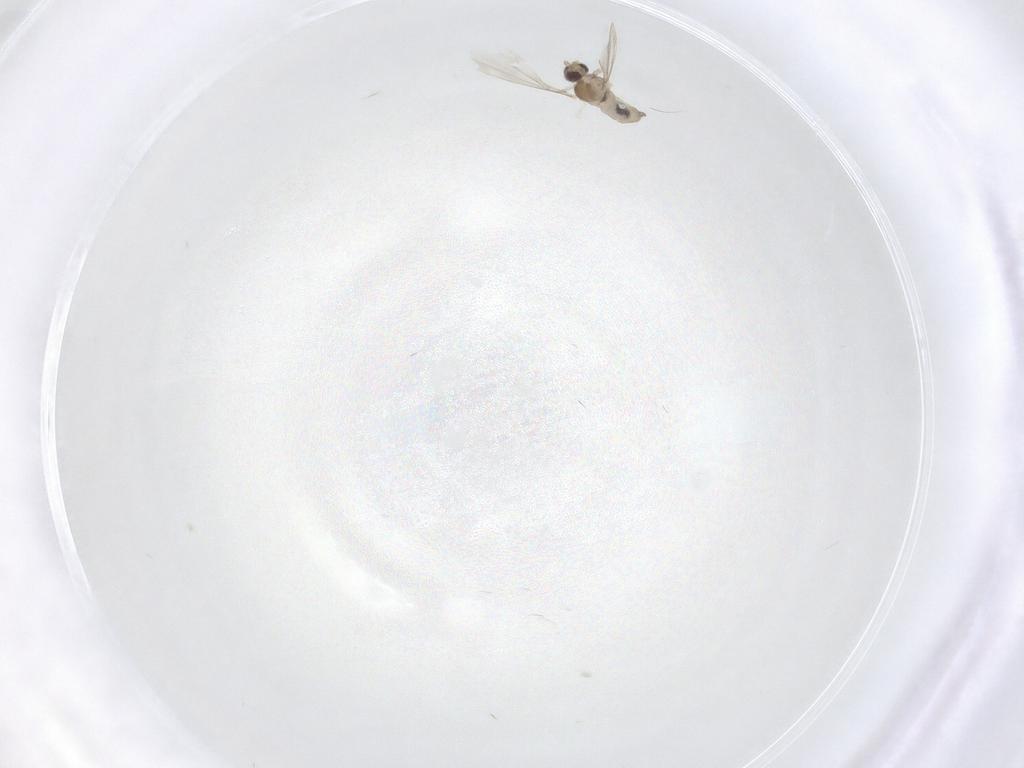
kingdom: Animalia
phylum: Arthropoda
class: Insecta
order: Diptera
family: Cecidomyiidae
